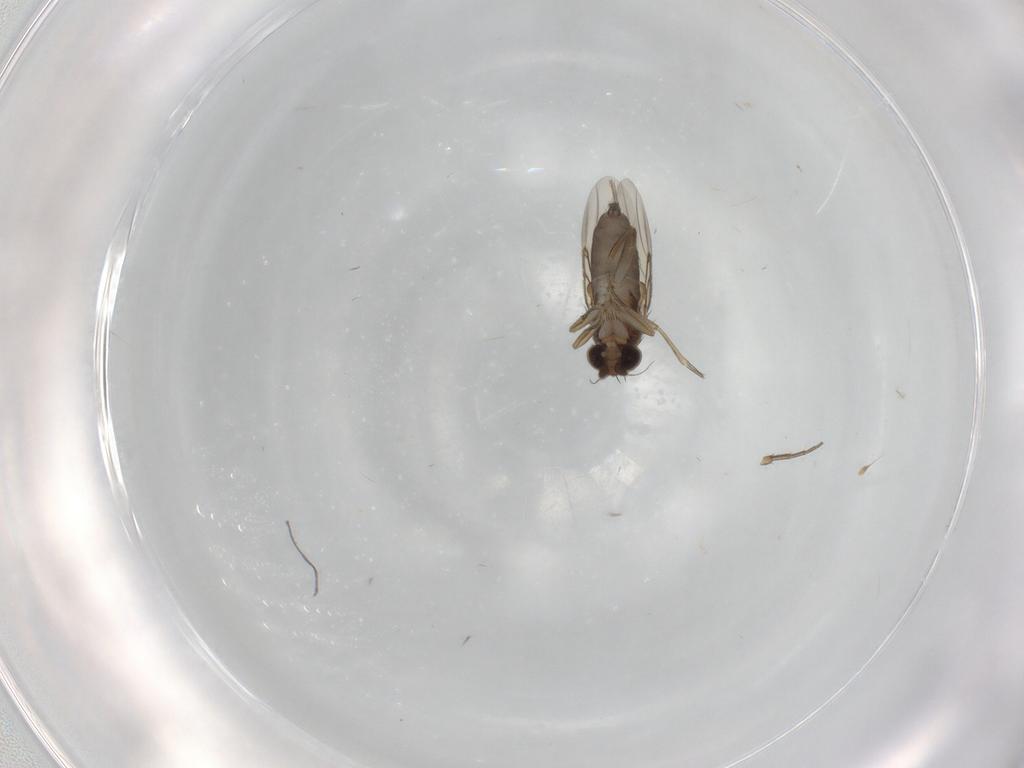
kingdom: Animalia
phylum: Arthropoda
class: Insecta
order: Diptera
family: Phoridae
